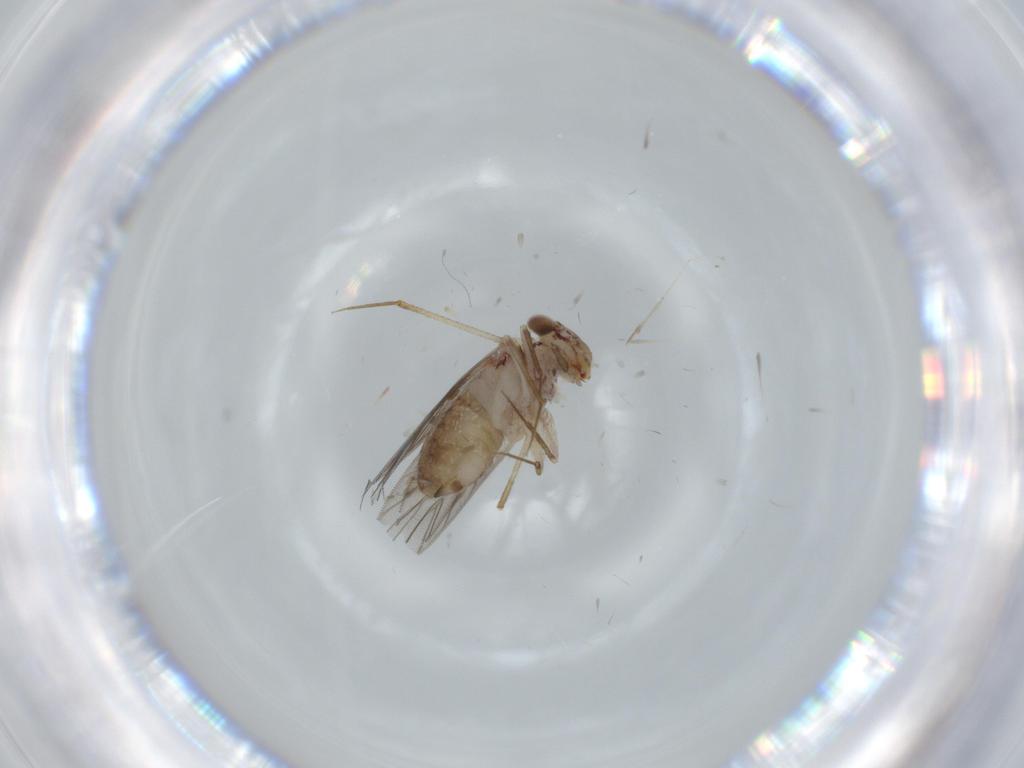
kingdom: Animalia
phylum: Arthropoda
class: Insecta
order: Psocodea
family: Lepidopsocidae
